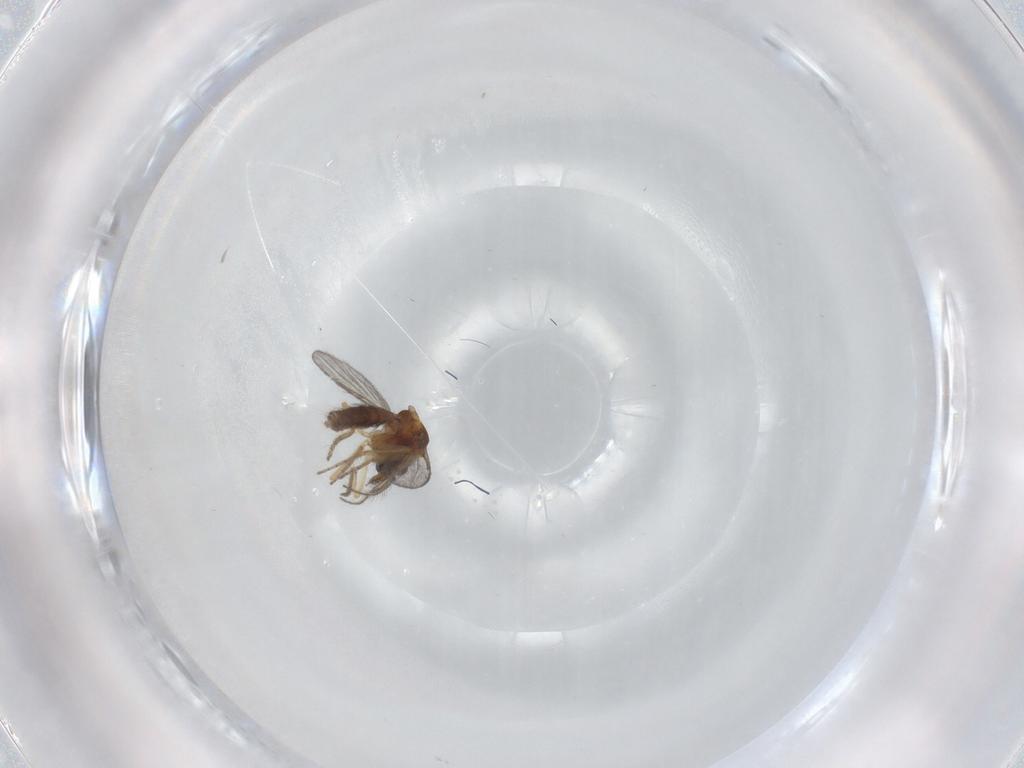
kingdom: Animalia
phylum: Arthropoda
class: Insecta
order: Diptera
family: Ceratopogonidae
